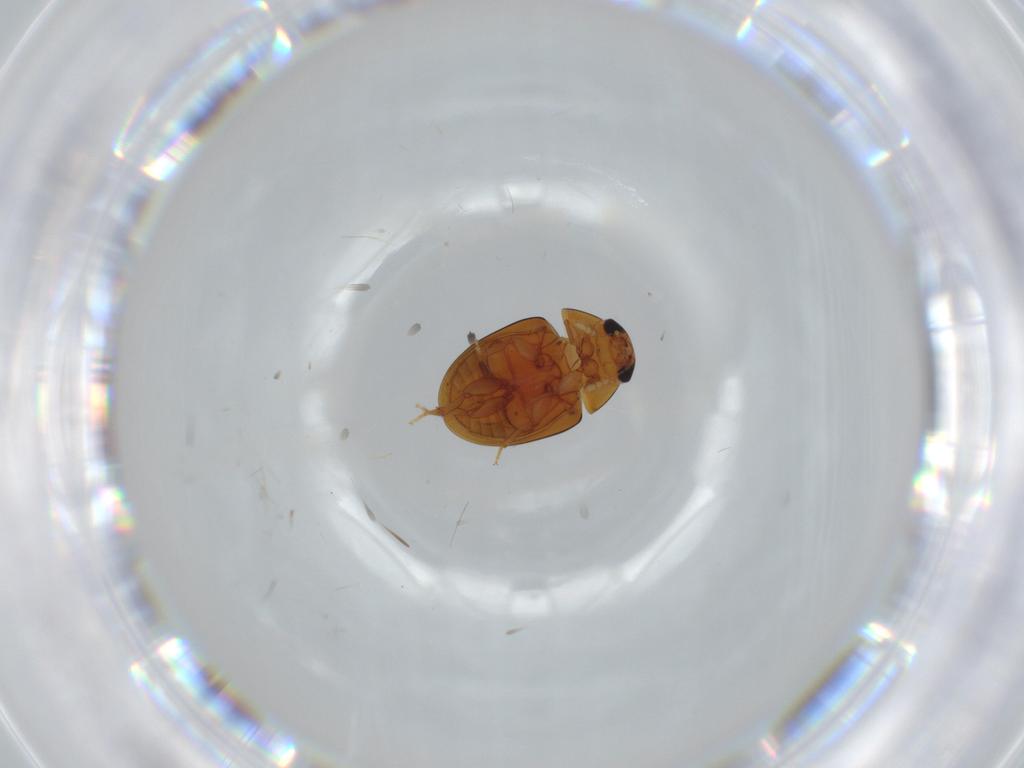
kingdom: Animalia
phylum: Arthropoda
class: Insecta
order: Coleoptera
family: Phalacridae
